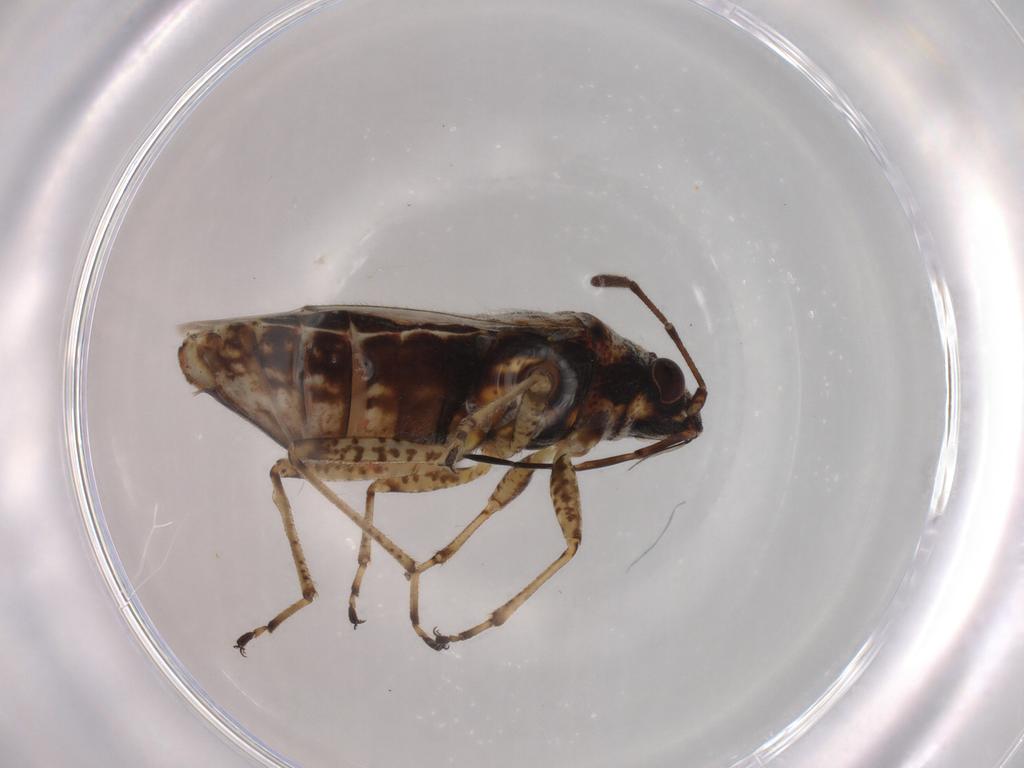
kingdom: Animalia
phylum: Arthropoda
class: Insecta
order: Hemiptera
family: Lygaeidae
